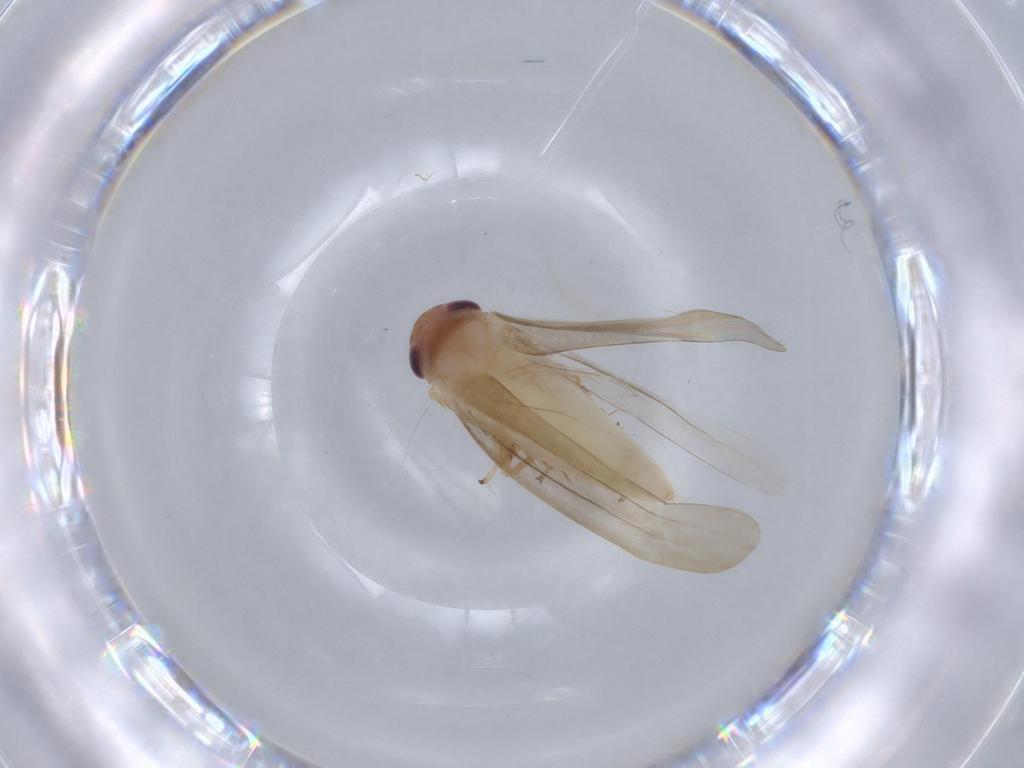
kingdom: Animalia
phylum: Arthropoda
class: Insecta
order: Hemiptera
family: Cicadellidae
